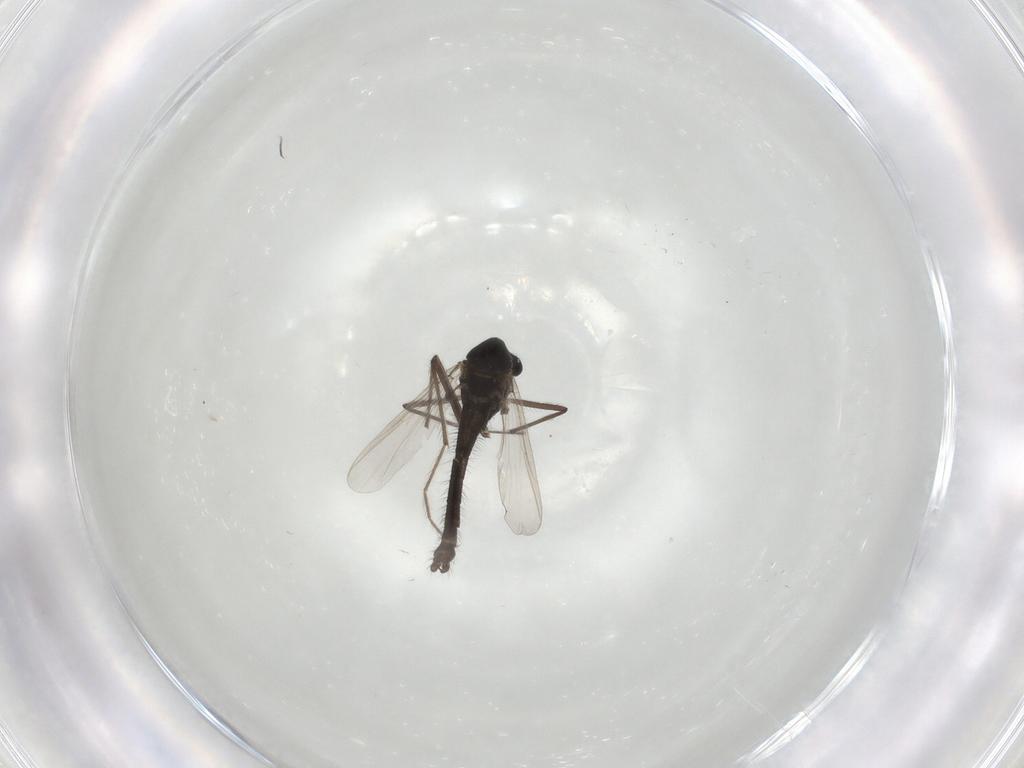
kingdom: Animalia
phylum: Arthropoda
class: Insecta
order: Diptera
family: Chironomidae
